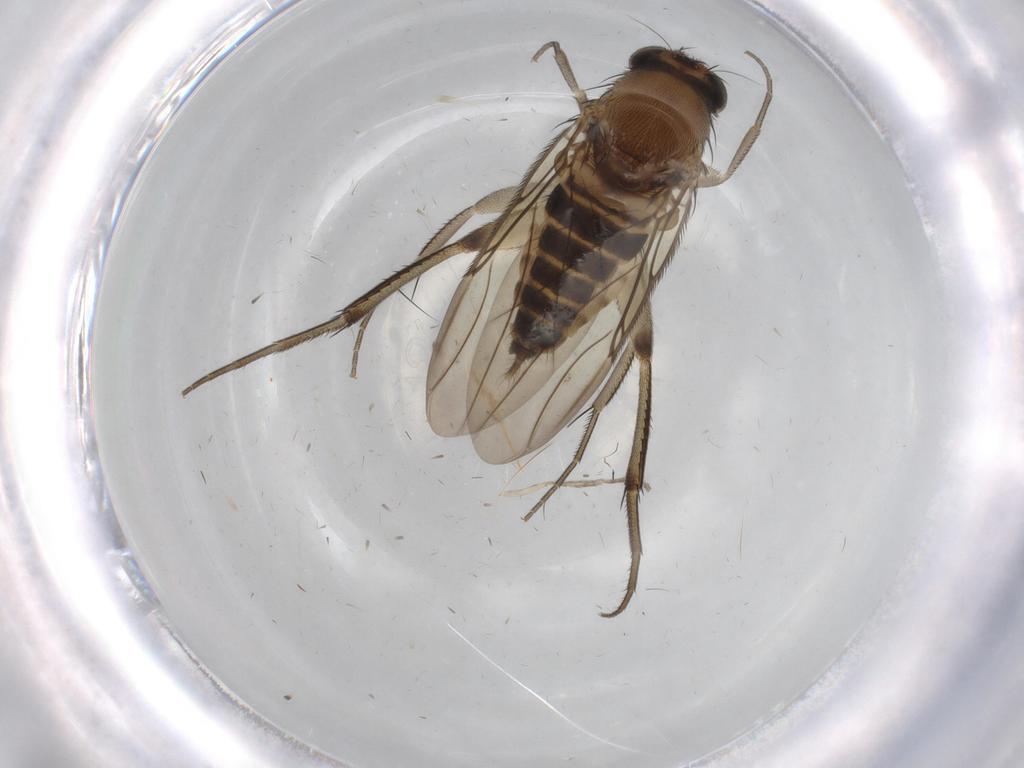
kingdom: Animalia
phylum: Arthropoda
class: Insecta
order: Diptera
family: Phoridae
